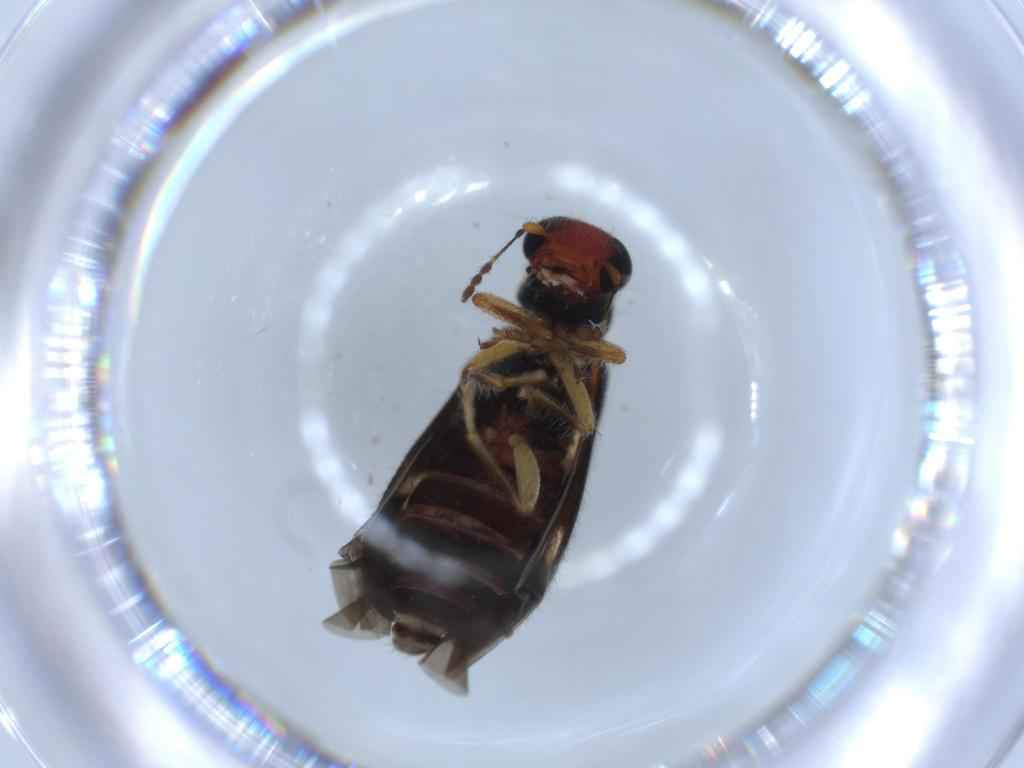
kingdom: Animalia
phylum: Arthropoda
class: Insecta
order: Coleoptera
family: Cleridae
